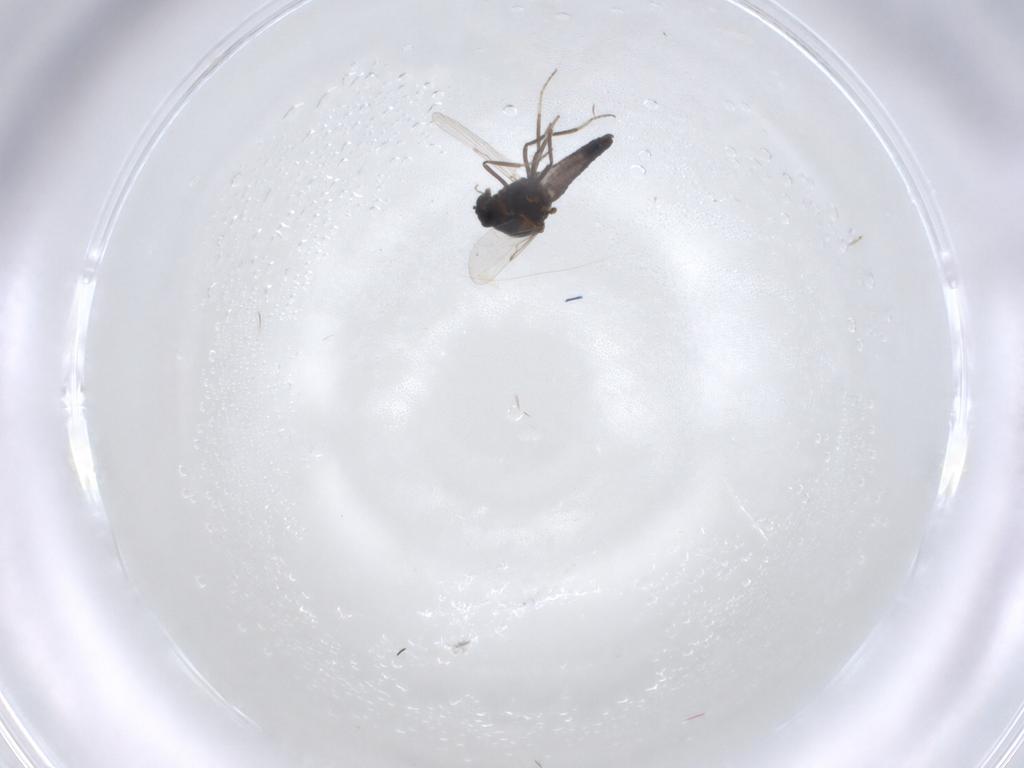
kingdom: Animalia
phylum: Arthropoda
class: Insecta
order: Diptera
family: Ceratopogonidae
